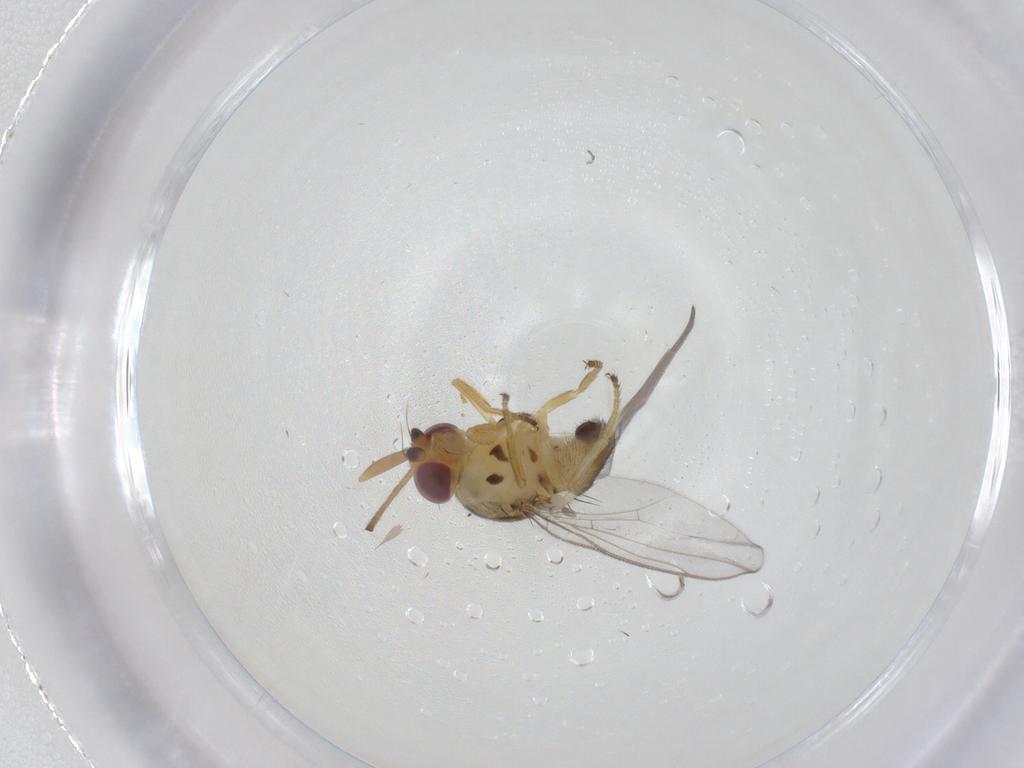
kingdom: Animalia
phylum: Arthropoda
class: Insecta
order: Diptera
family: Chloropidae
